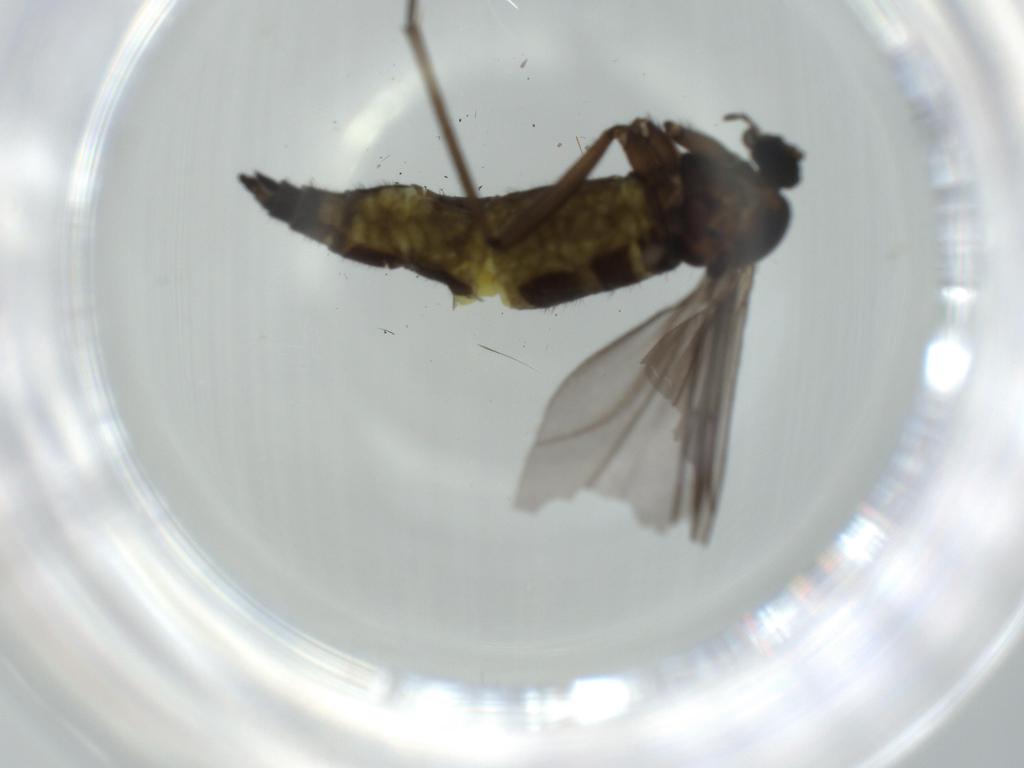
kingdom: Animalia
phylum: Arthropoda
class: Insecta
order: Diptera
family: Sciaridae
